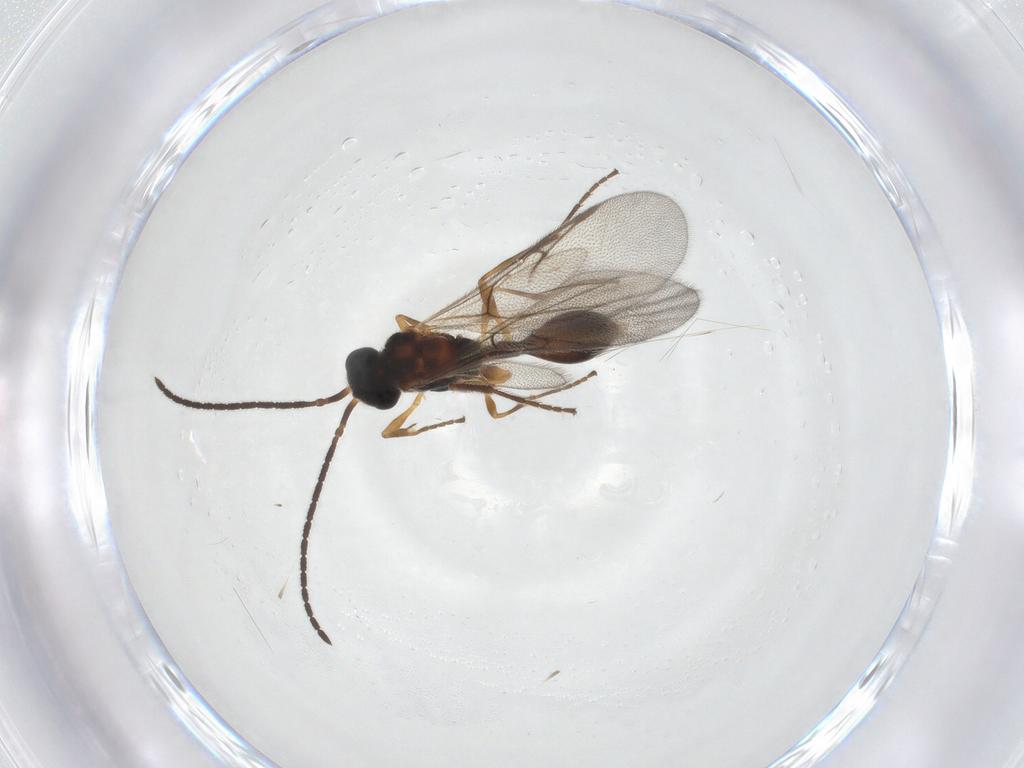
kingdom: Animalia
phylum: Arthropoda
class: Insecta
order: Hymenoptera
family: Diapriidae
